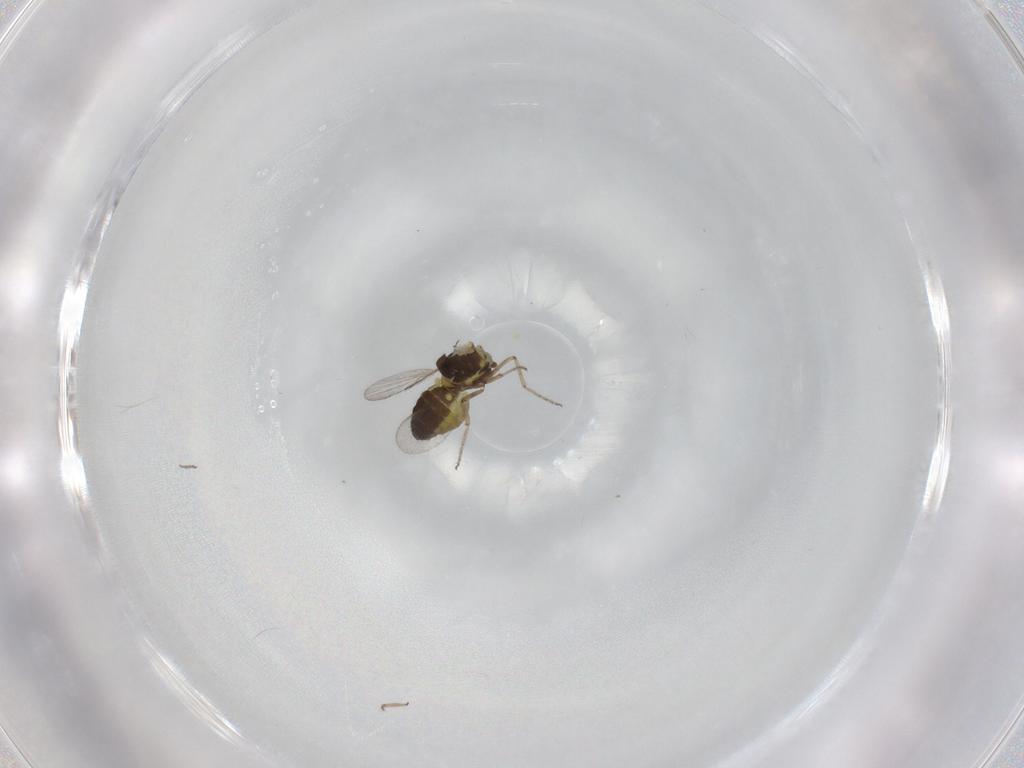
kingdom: Animalia
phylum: Arthropoda
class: Insecta
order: Diptera
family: Ceratopogonidae
